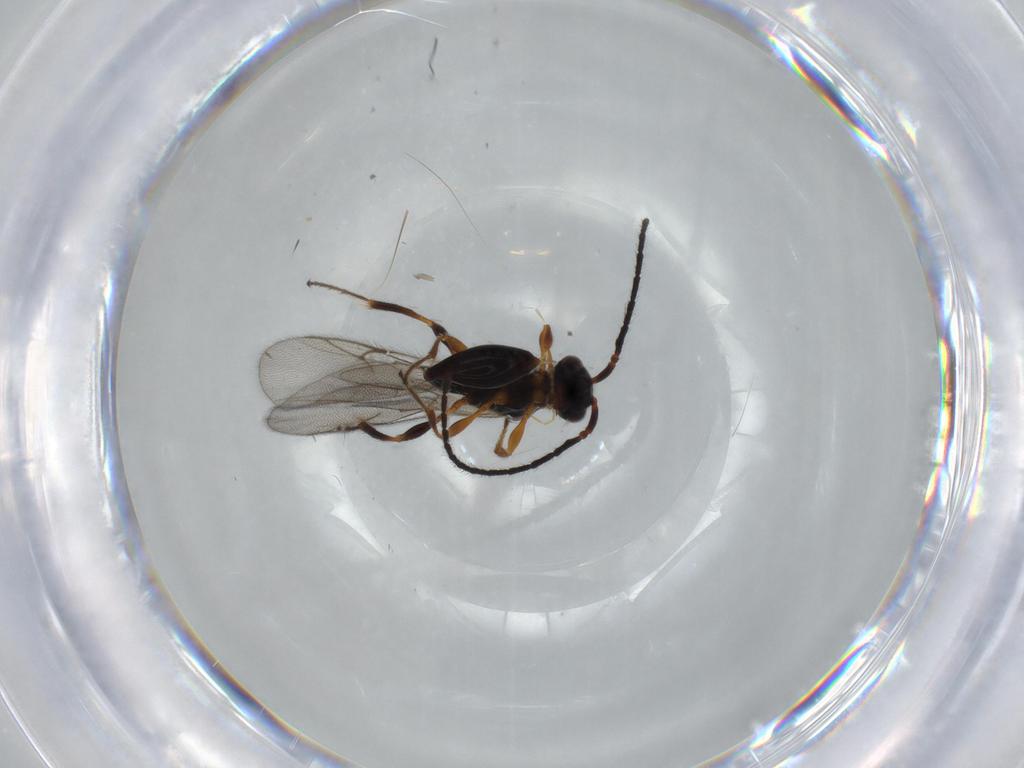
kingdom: Animalia
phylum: Arthropoda
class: Insecta
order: Hymenoptera
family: Diapriidae
